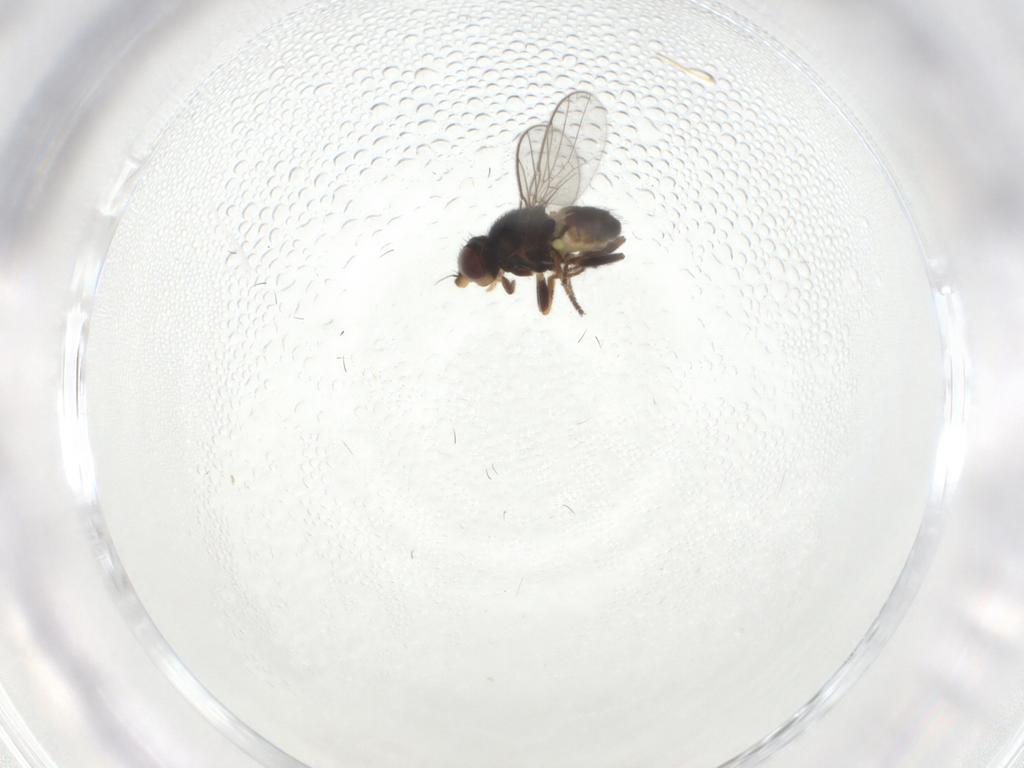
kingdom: Animalia
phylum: Arthropoda
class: Insecta
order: Diptera
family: Chloropidae
